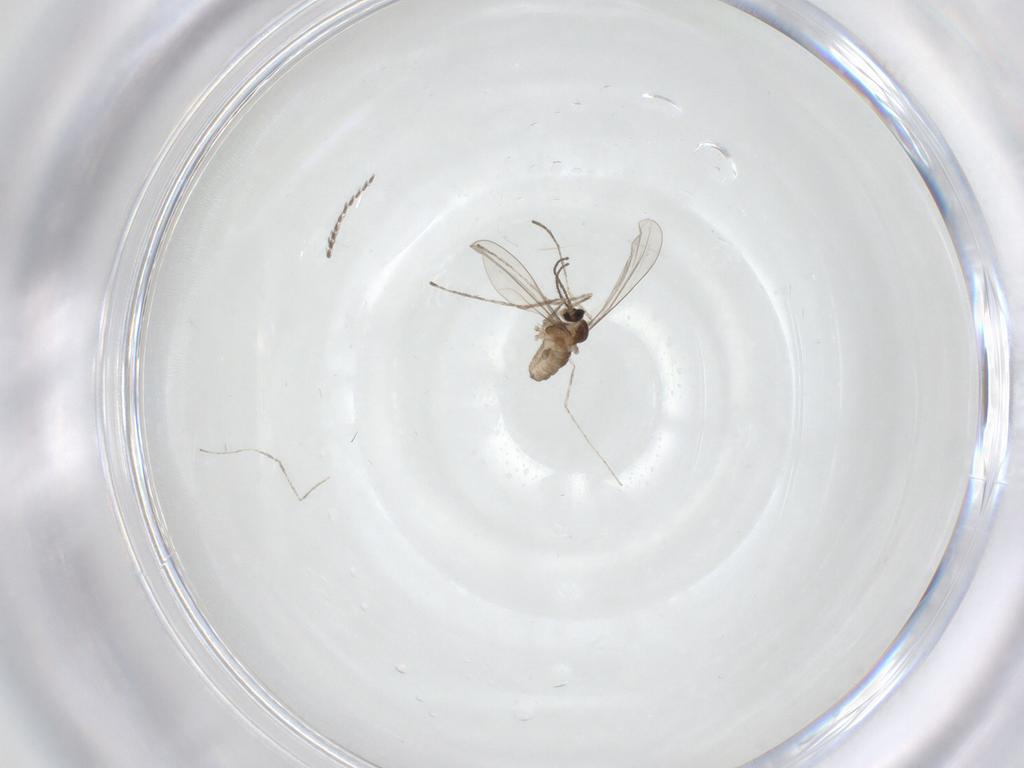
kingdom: Animalia
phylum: Arthropoda
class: Insecta
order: Diptera
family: Cecidomyiidae
